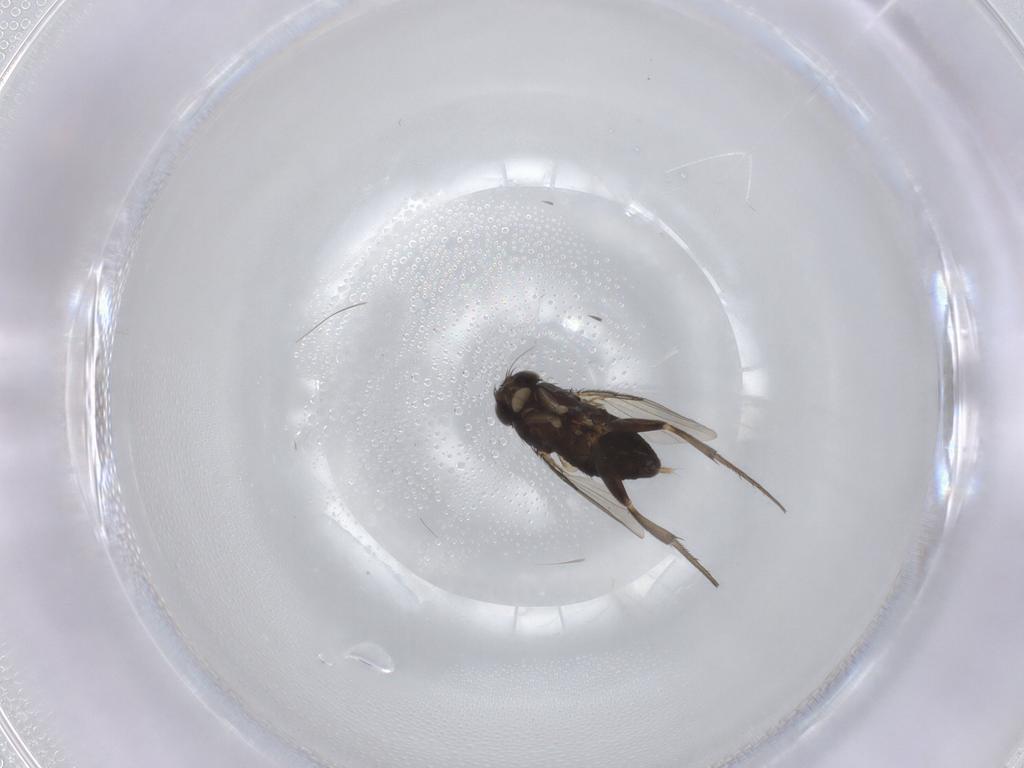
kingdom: Animalia
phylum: Arthropoda
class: Insecta
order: Diptera
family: Phoridae
